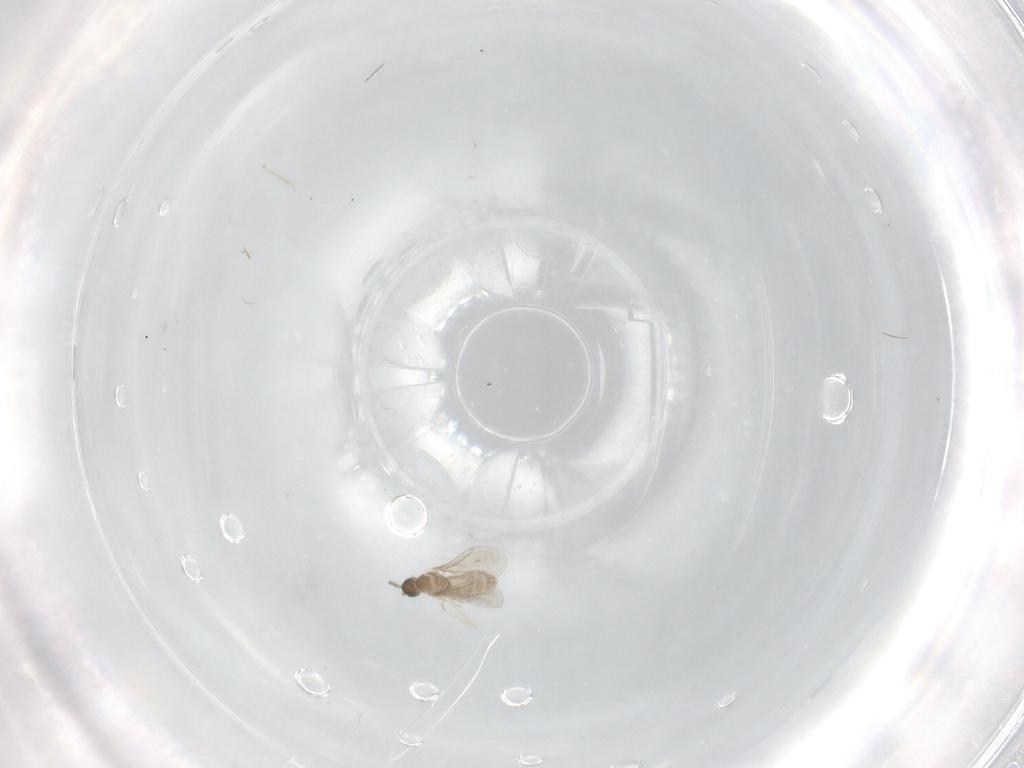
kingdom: Animalia
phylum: Arthropoda
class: Insecta
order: Diptera
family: Cecidomyiidae
